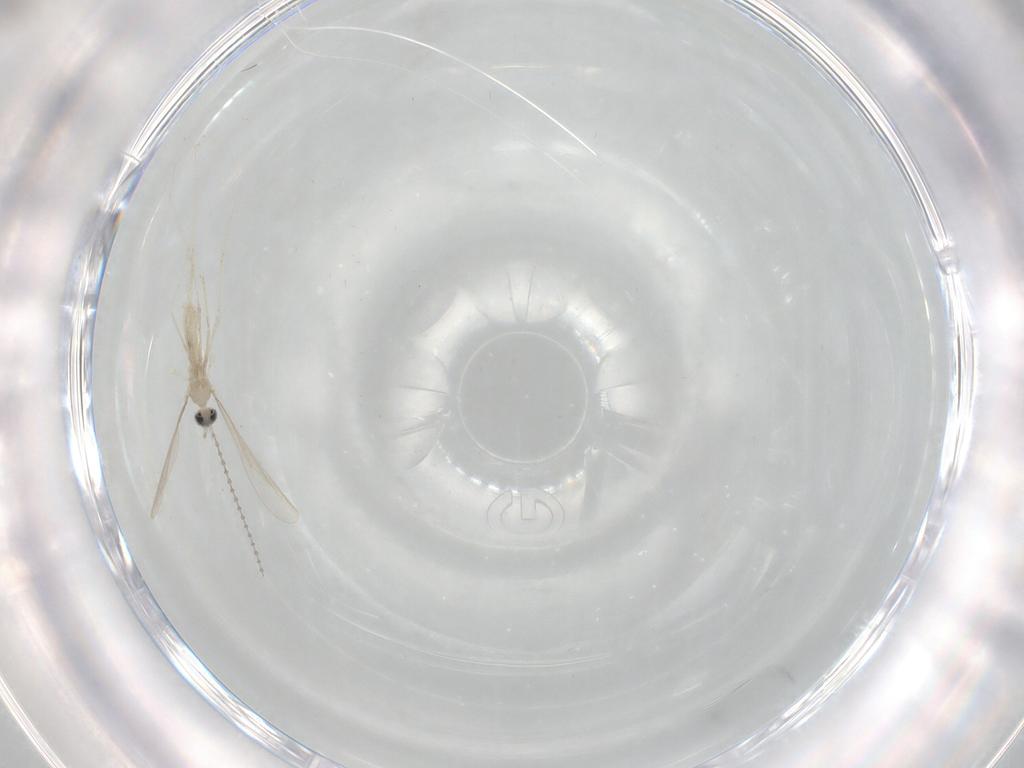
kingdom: Animalia
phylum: Arthropoda
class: Insecta
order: Diptera
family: Cecidomyiidae
